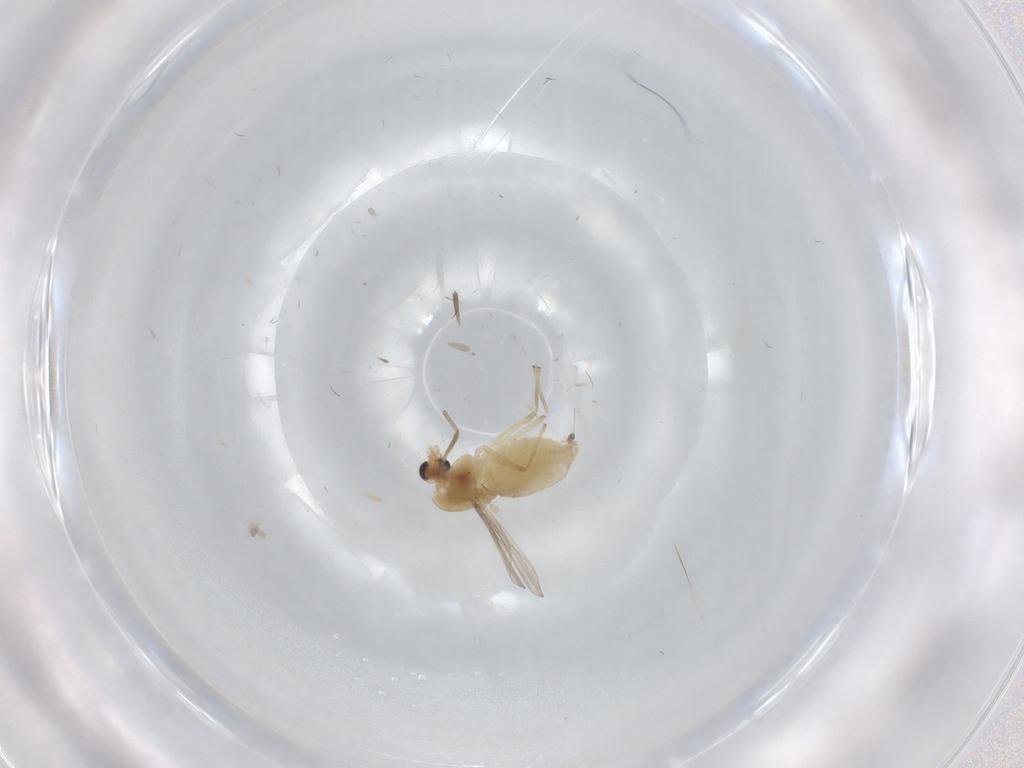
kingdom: Animalia
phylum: Arthropoda
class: Insecta
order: Diptera
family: Chironomidae
